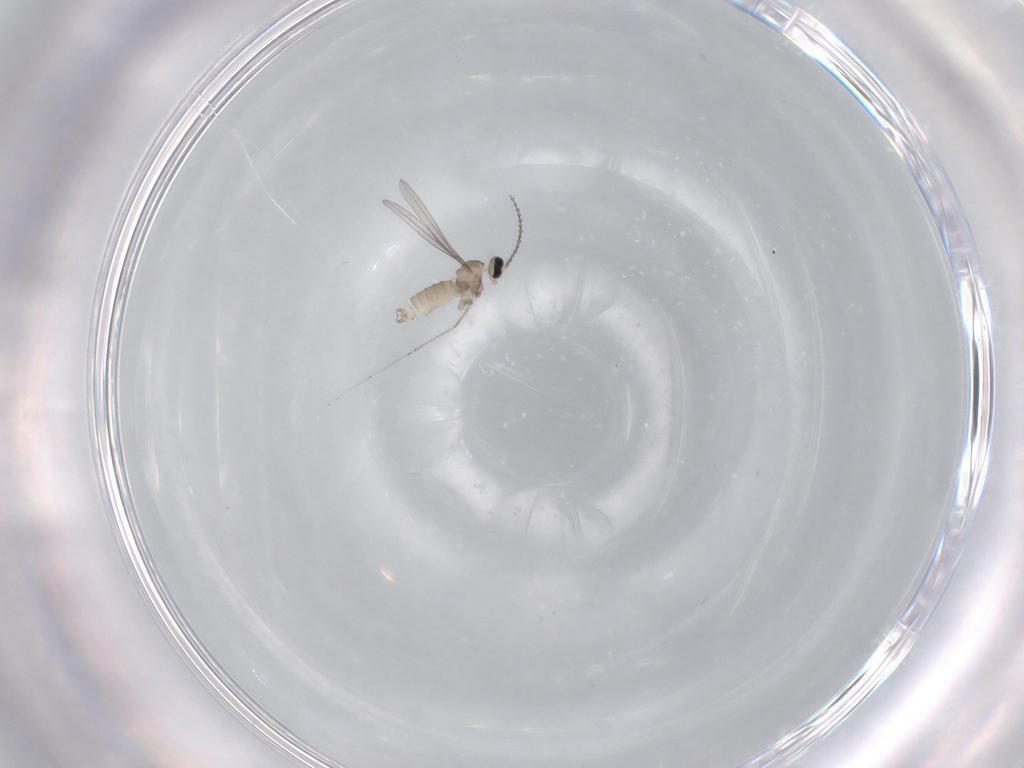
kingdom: Animalia
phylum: Arthropoda
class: Insecta
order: Diptera
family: Cecidomyiidae
